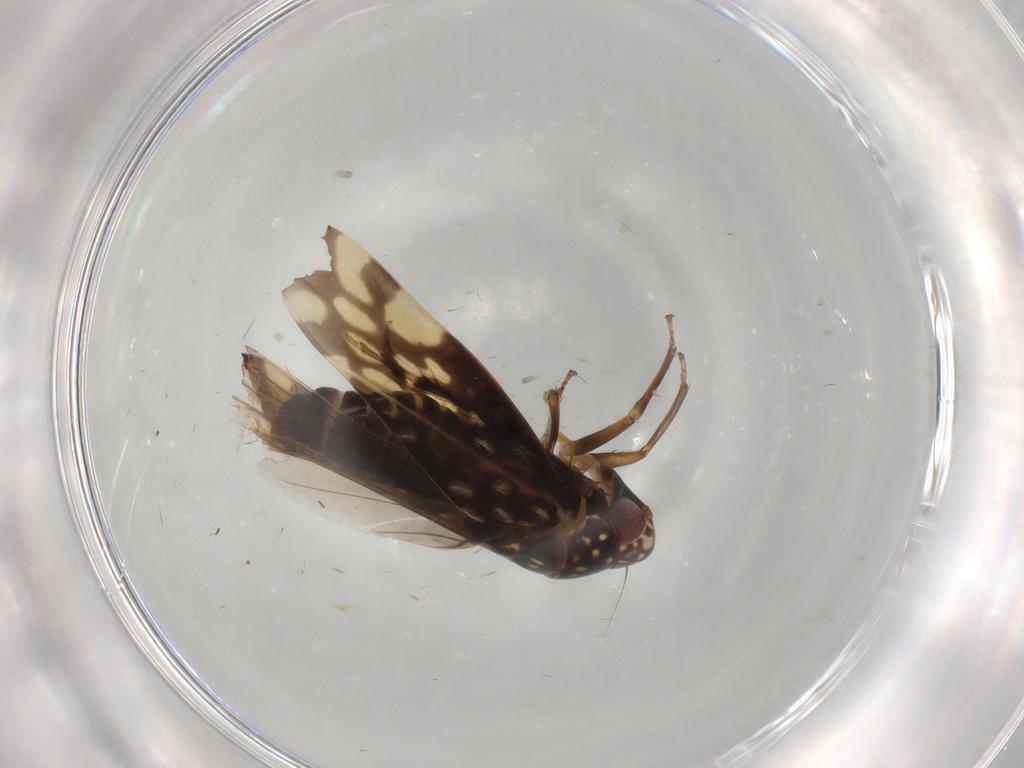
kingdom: Animalia
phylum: Arthropoda
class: Insecta
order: Hemiptera
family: Cicadellidae
